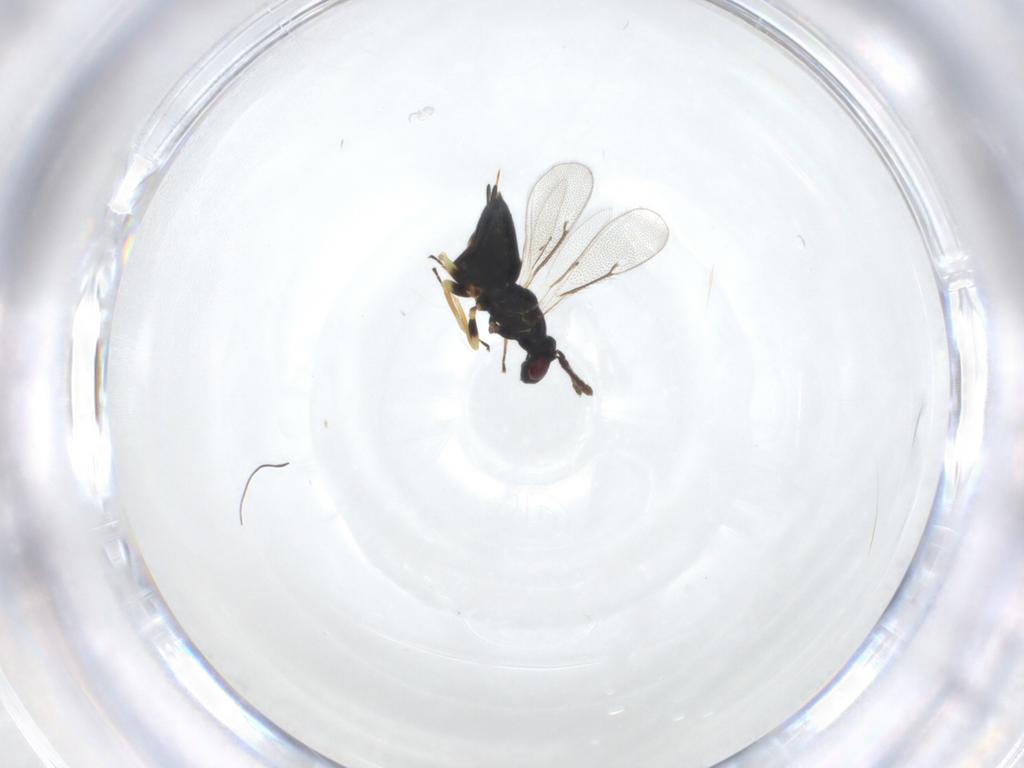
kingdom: Animalia
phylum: Arthropoda
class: Insecta
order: Hymenoptera
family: Eulophidae
